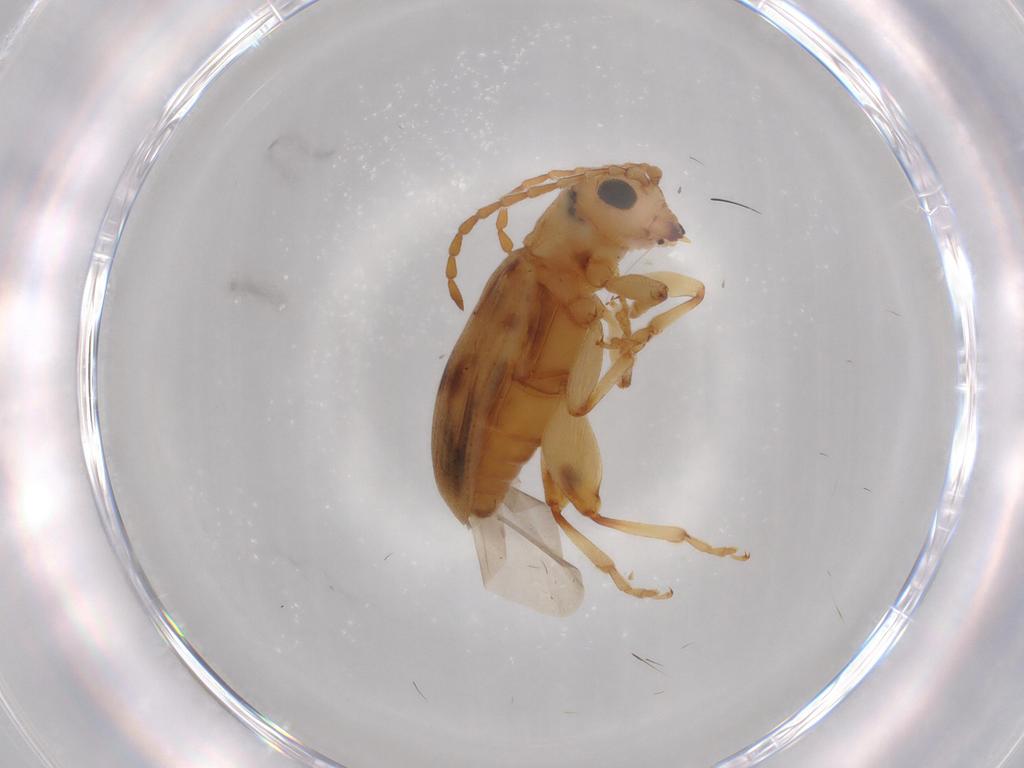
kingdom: Animalia
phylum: Arthropoda
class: Insecta
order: Coleoptera
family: Chrysomelidae
